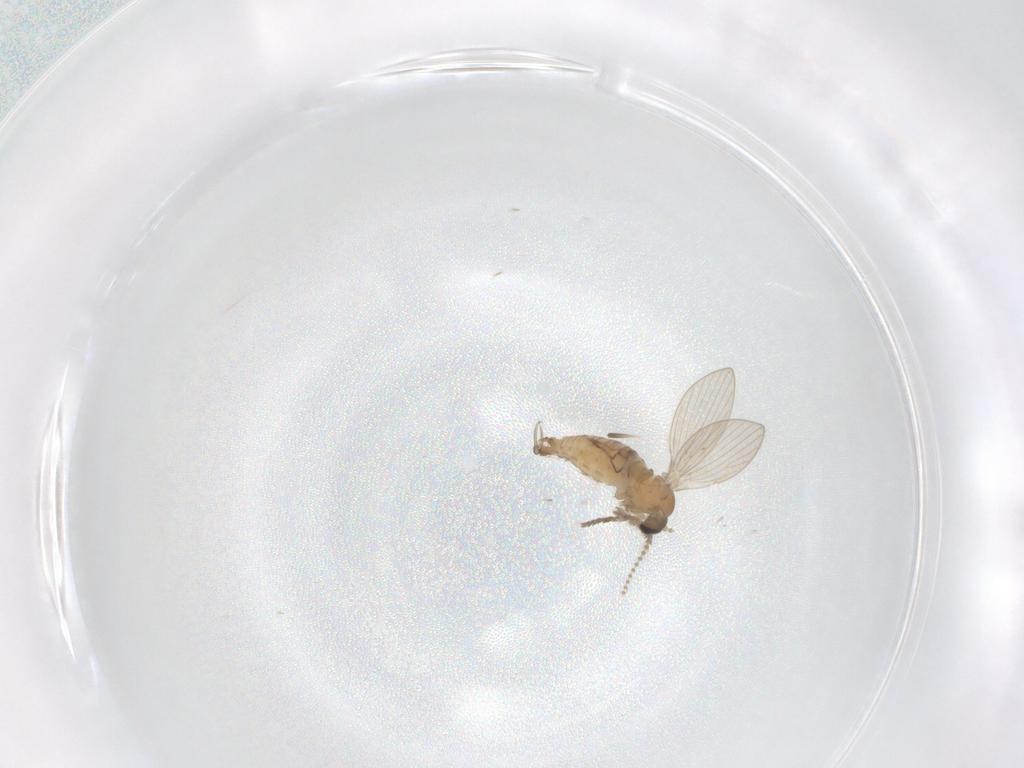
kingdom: Animalia
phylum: Arthropoda
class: Insecta
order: Diptera
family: Psychodidae
